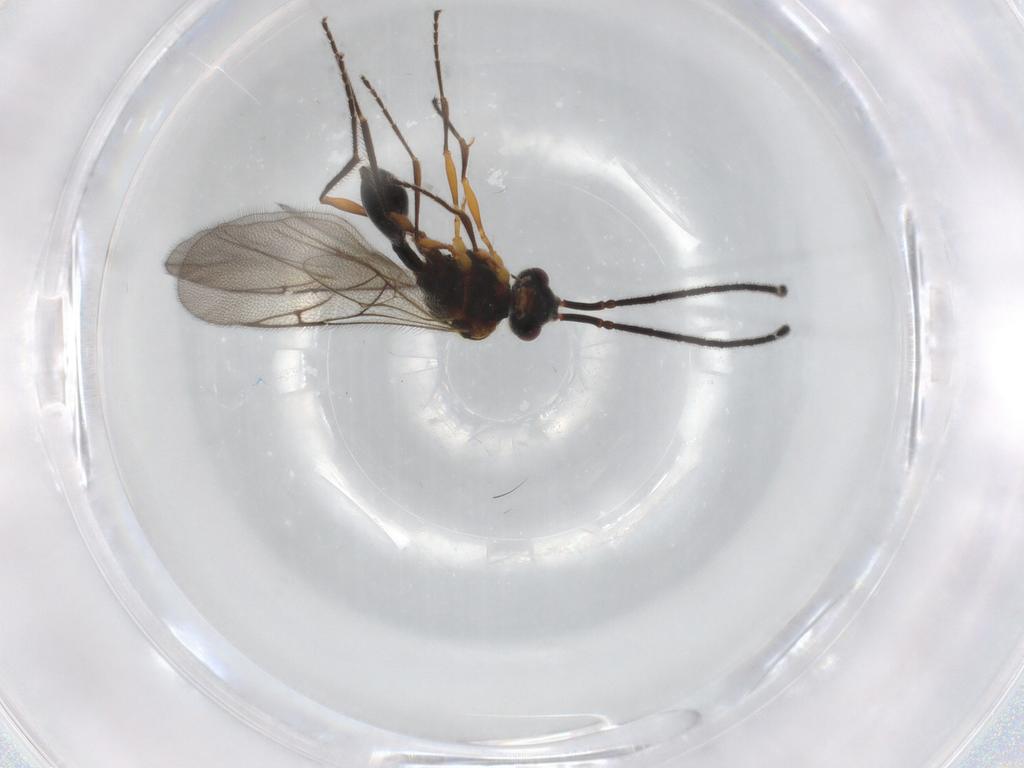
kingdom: Animalia
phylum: Arthropoda
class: Insecta
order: Hymenoptera
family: Diapriidae
